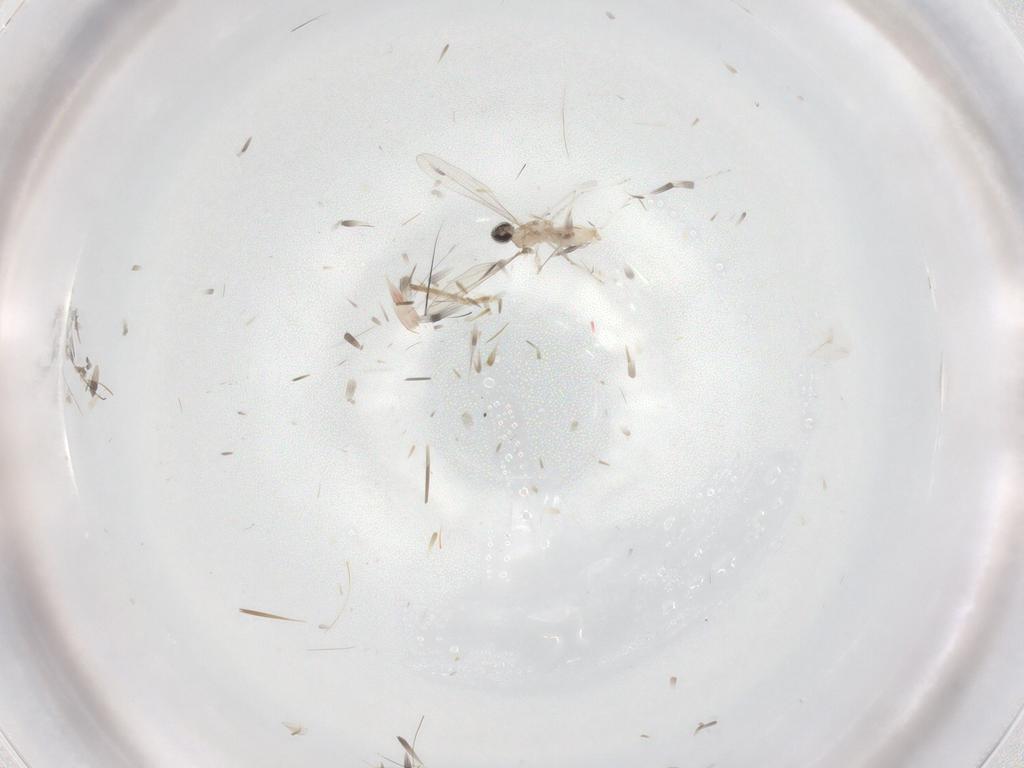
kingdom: Animalia
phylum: Arthropoda
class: Insecta
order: Diptera
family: Cecidomyiidae
